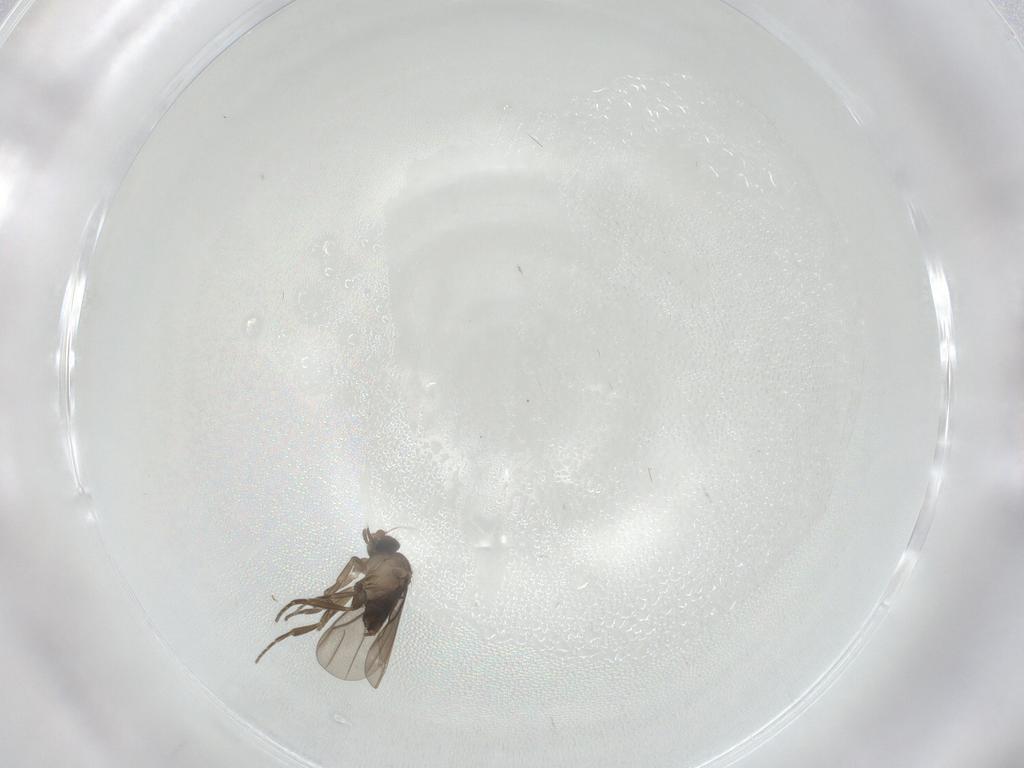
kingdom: Animalia
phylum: Arthropoda
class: Insecta
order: Diptera
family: Phoridae
